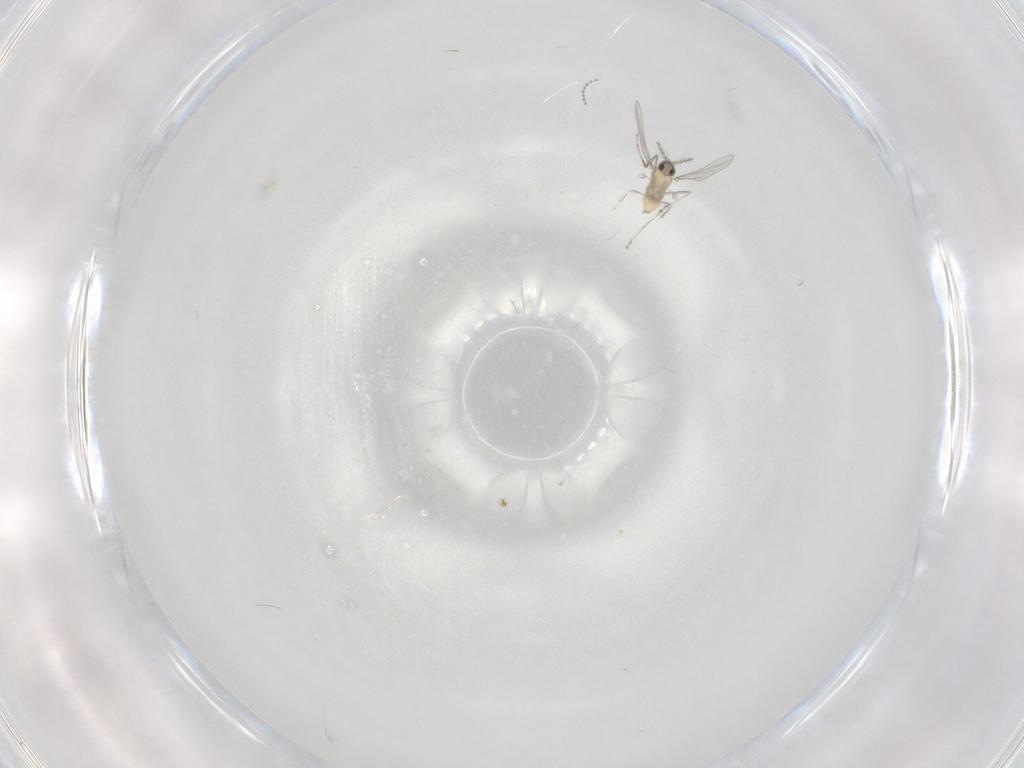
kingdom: Animalia
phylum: Arthropoda
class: Insecta
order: Diptera
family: Cecidomyiidae
